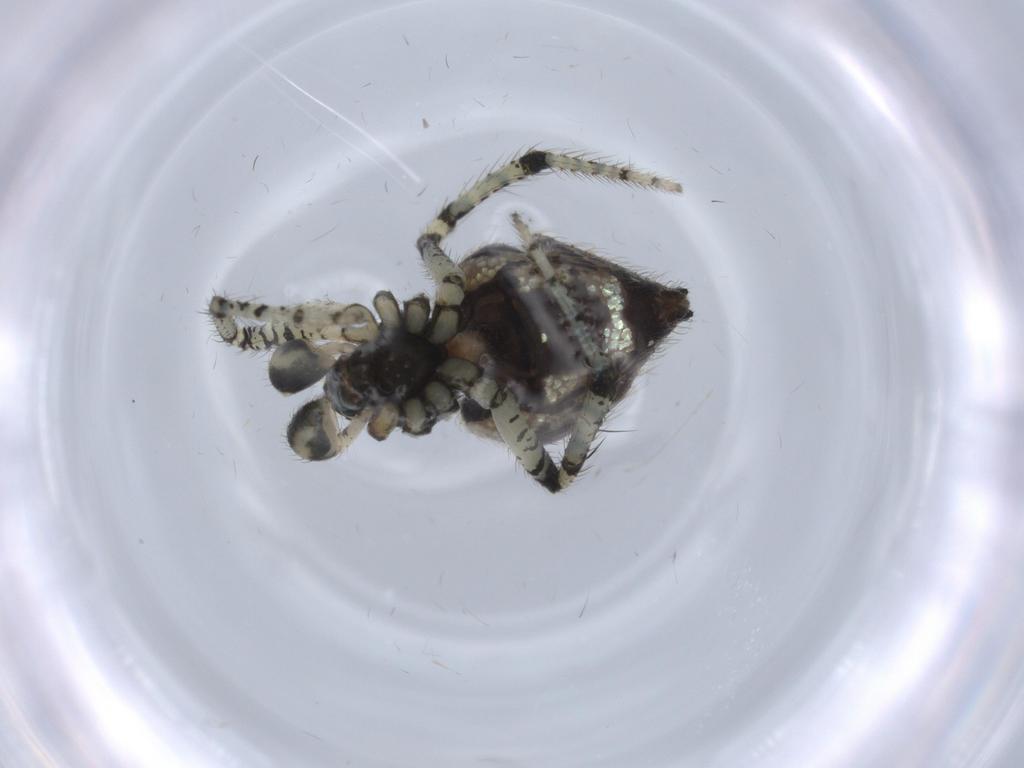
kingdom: Animalia
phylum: Arthropoda
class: Arachnida
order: Araneae
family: Theridiidae
